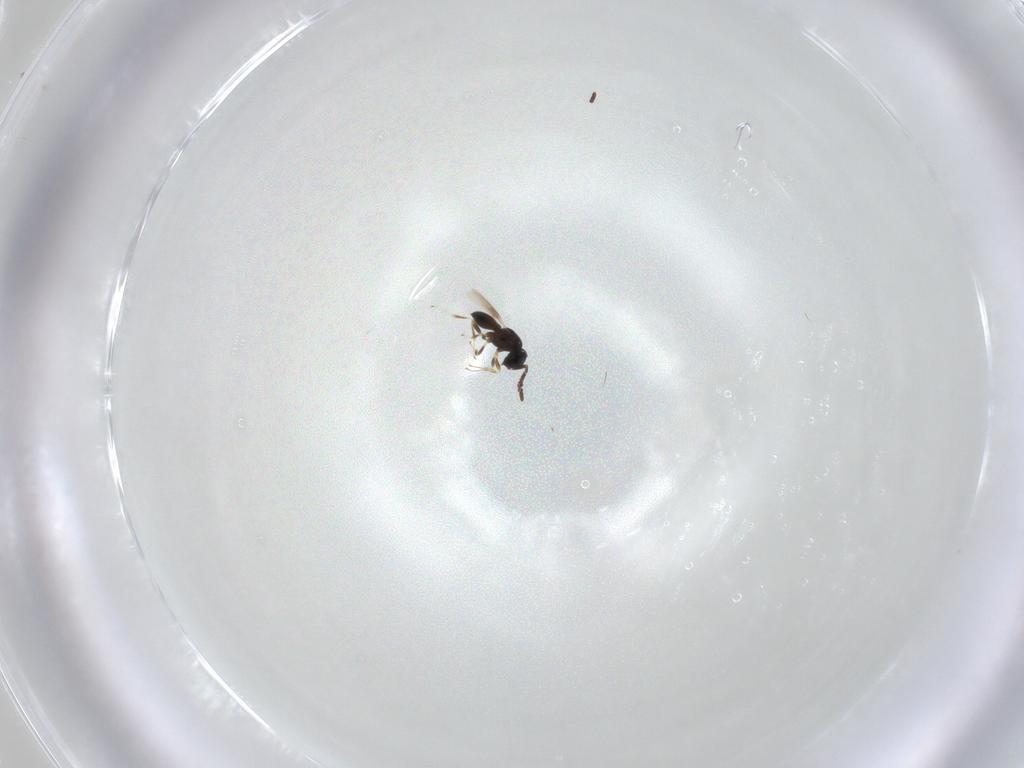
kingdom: Animalia
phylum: Arthropoda
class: Insecta
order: Hymenoptera
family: Scelionidae
